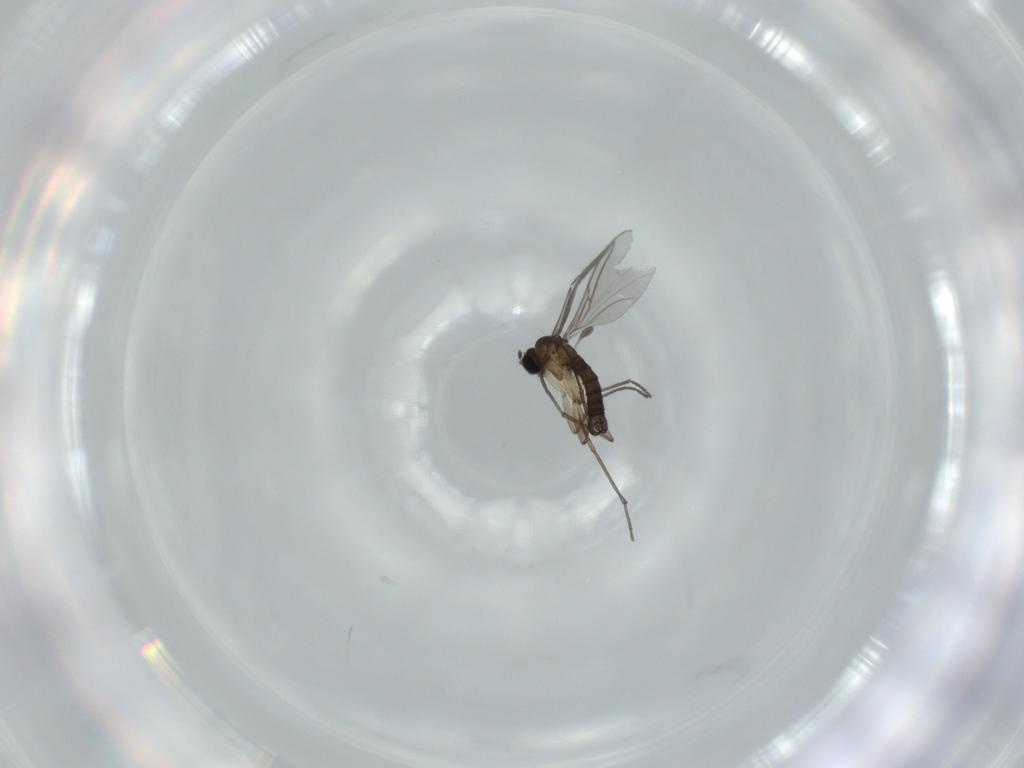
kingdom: Animalia
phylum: Arthropoda
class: Insecta
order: Diptera
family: Sciaridae
